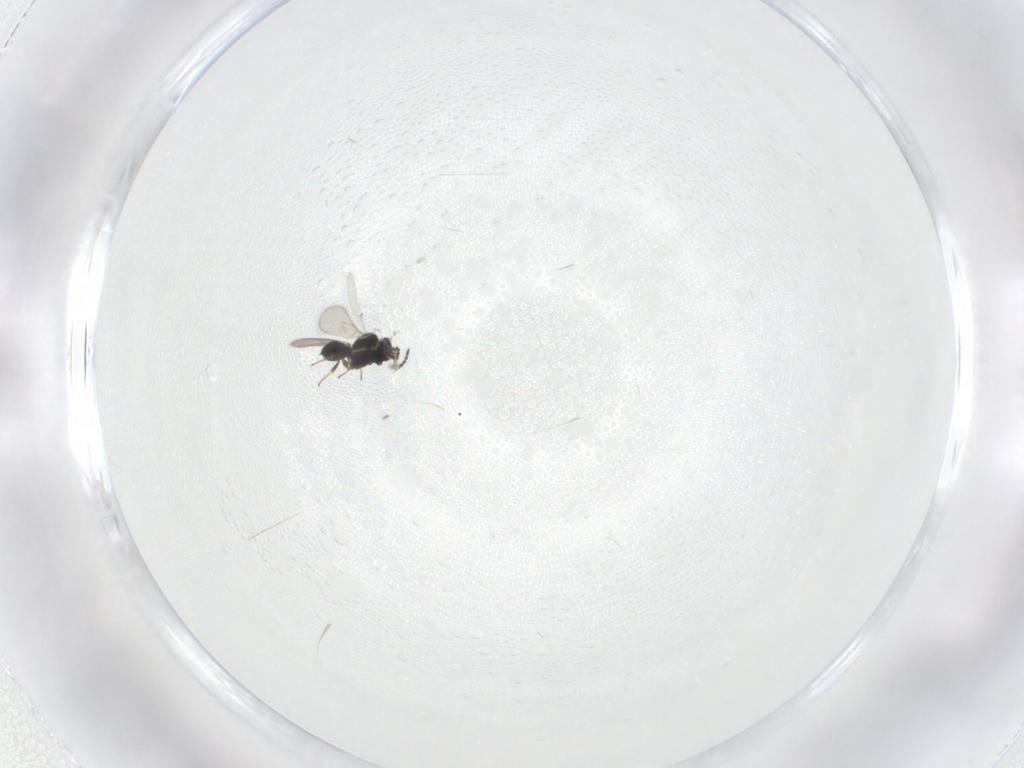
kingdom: Animalia
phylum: Arthropoda
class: Insecta
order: Hymenoptera
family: Scelionidae
